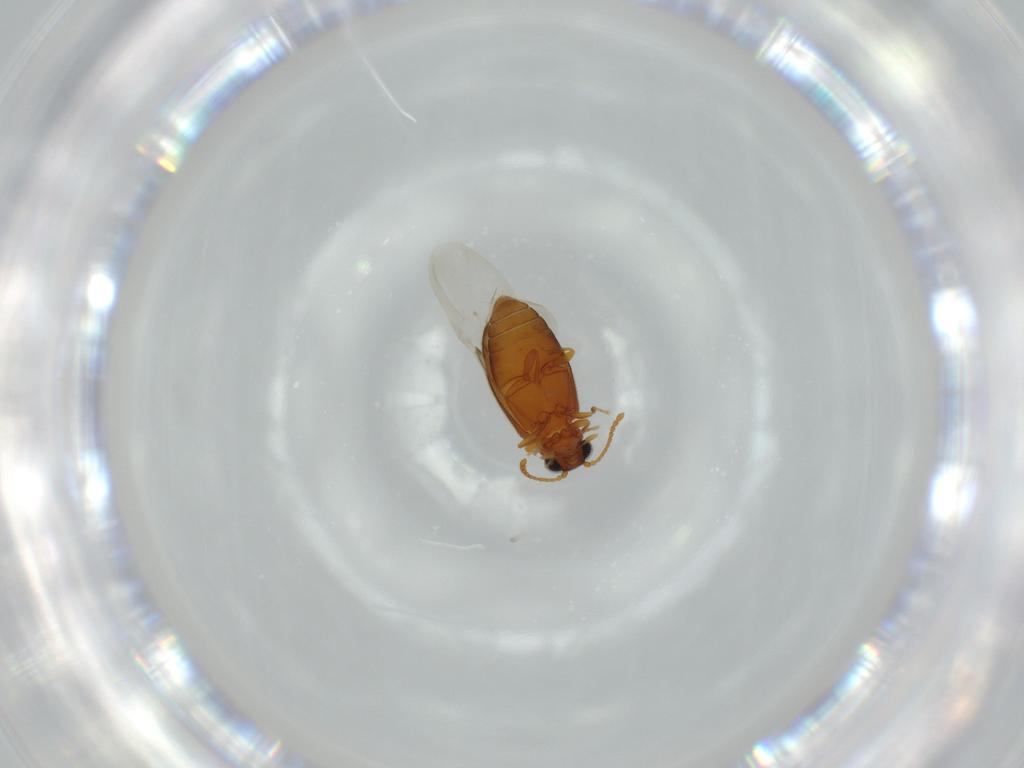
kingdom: Animalia
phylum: Arthropoda
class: Insecta
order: Coleoptera
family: Aderidae
